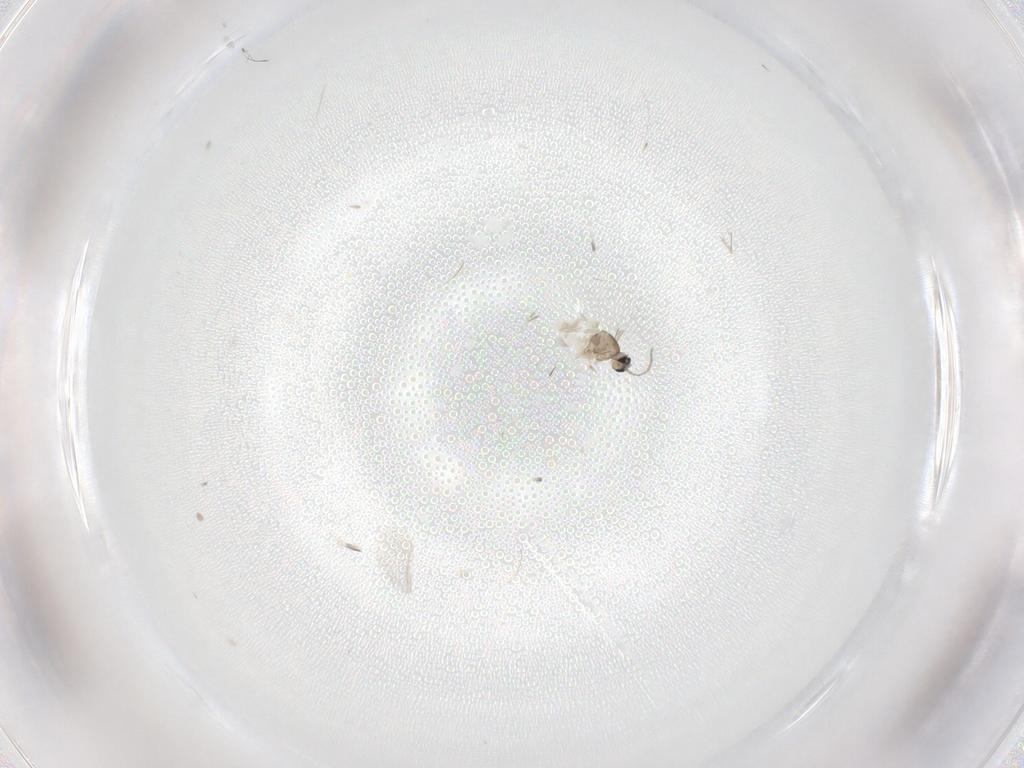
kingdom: Animalia
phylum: Arthropoda
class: Insecta
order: Diptera
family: Cecidomyiidae
